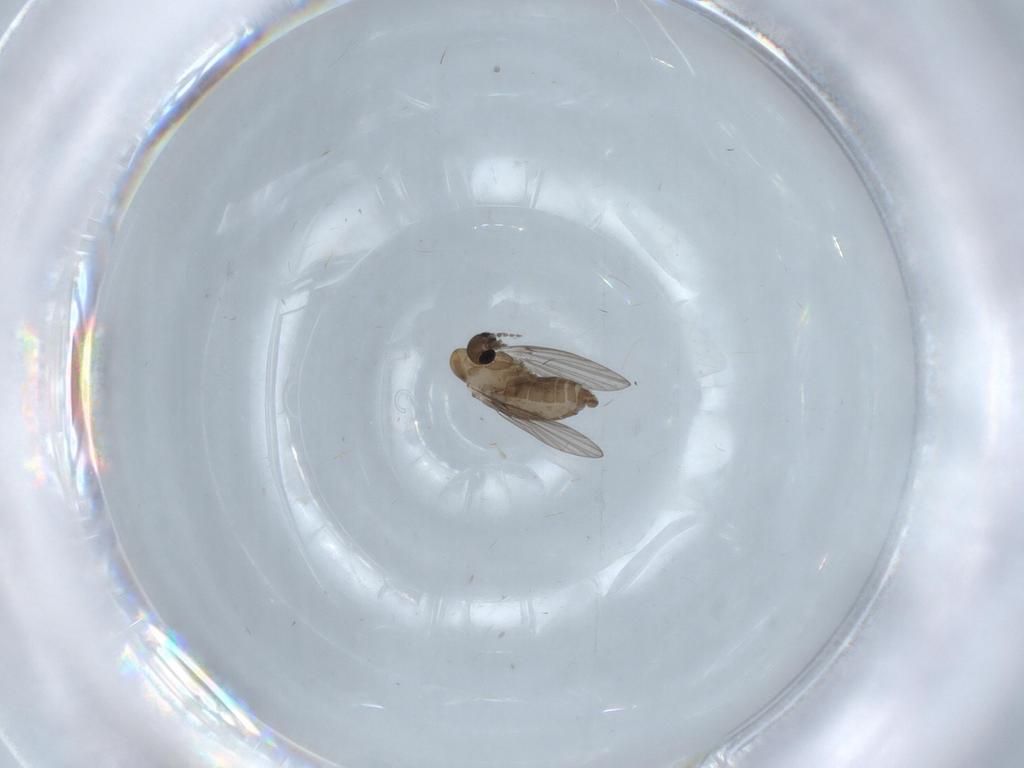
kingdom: Animalia
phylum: Arthropoda
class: Insecta
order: Diptera
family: Psychodidae
